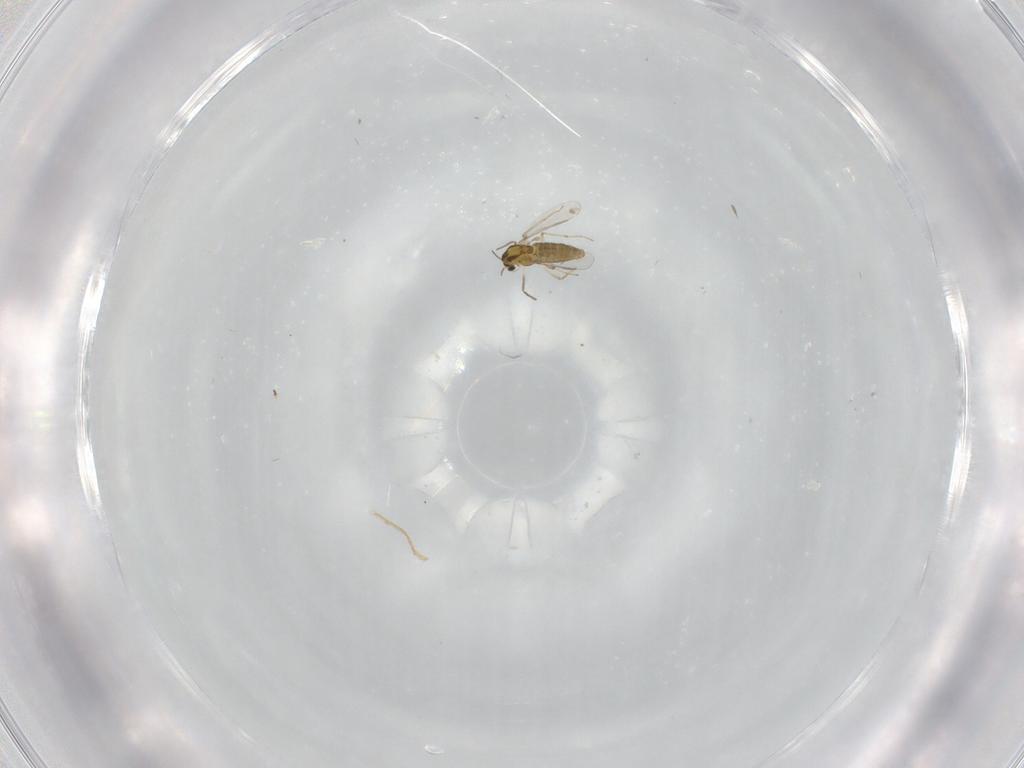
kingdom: Animalia
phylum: Arthropoda
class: Insecta
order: Diptera
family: Chironomidae
